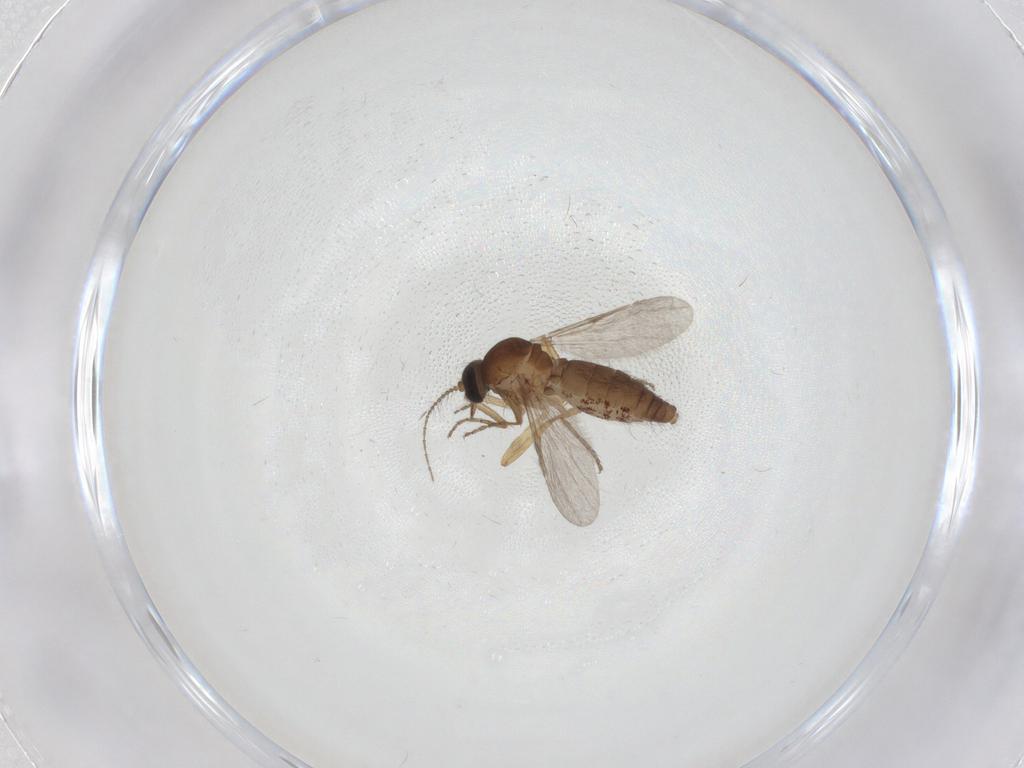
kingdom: Animalia
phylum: Arthropoda
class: Insecta
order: Diptera
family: Ceratopogonidae
